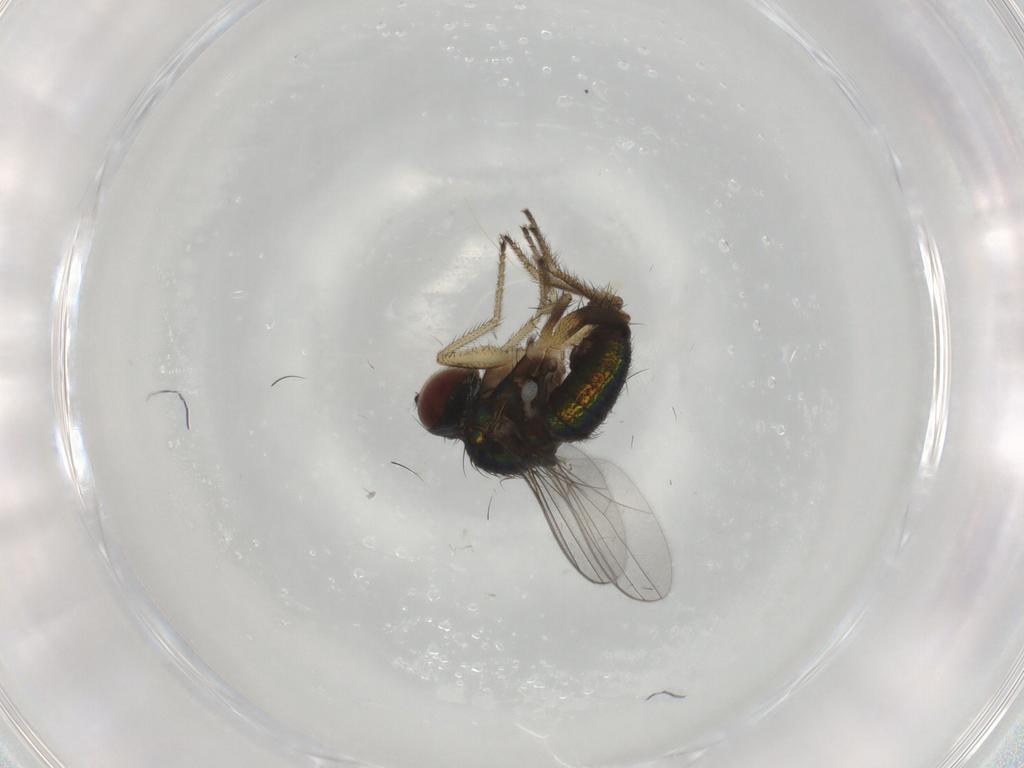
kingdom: Animalia
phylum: Arthropoda
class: Insecta
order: Diptera
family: Dolichopodidae
